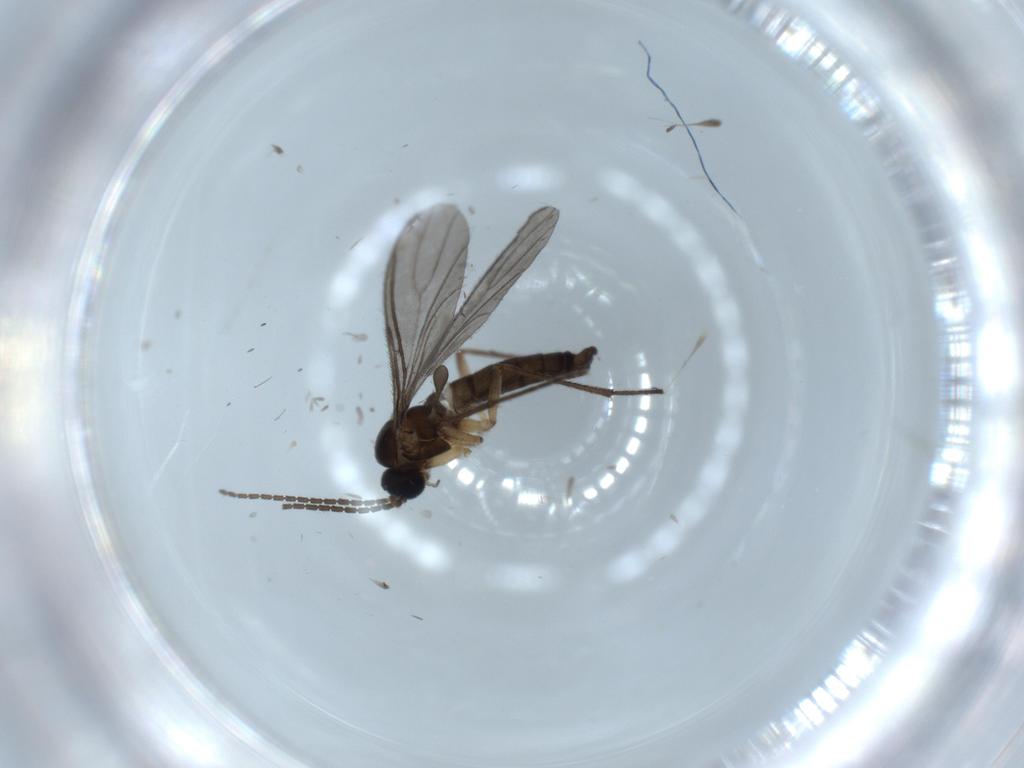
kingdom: Animalia
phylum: Arthropoda
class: Insecta
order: Diptera
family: Sciaridae
